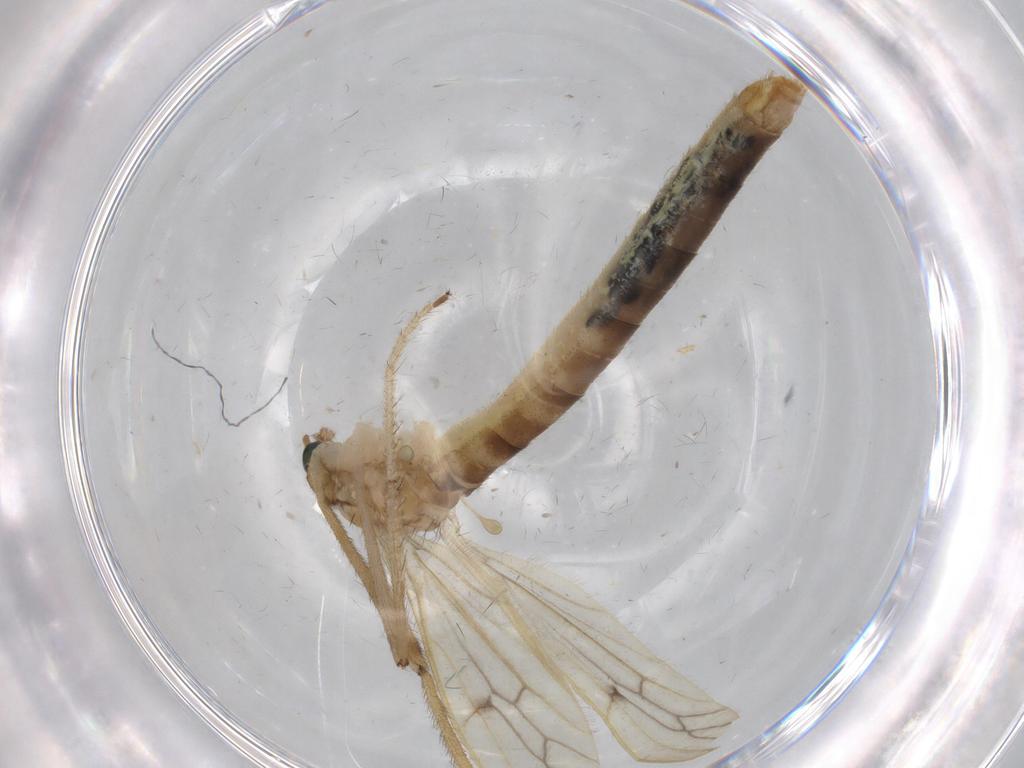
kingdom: Animalia
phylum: Arthropoda
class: Insecta
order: Diptera
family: Limoniidae
